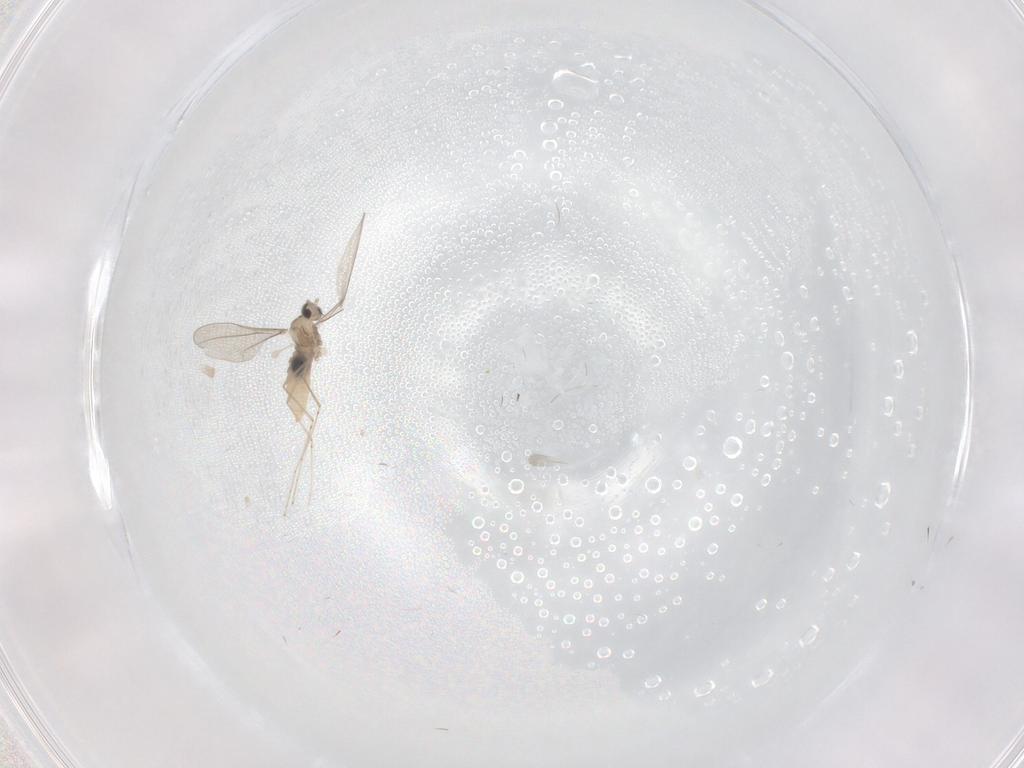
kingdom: Animalia
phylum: Arthropoda
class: Insecta
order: Diptera
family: Cecidomyiidae
